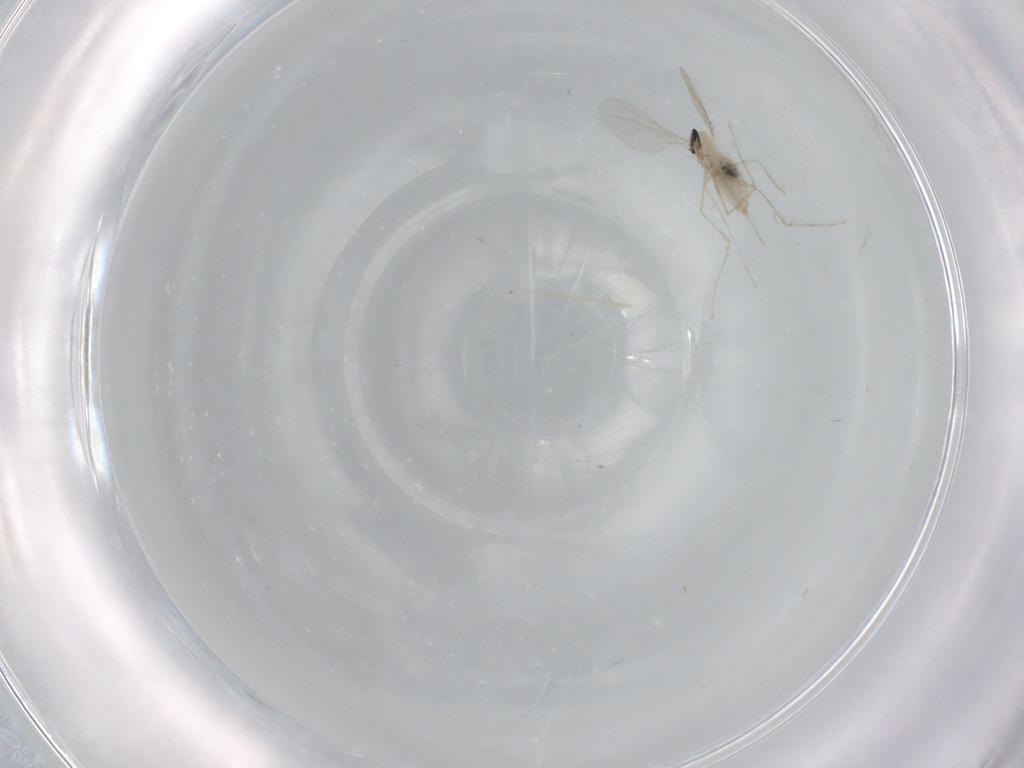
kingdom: Animalia
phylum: Arthropoda
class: Insecta
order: Diptera
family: Cecidomyiidae
